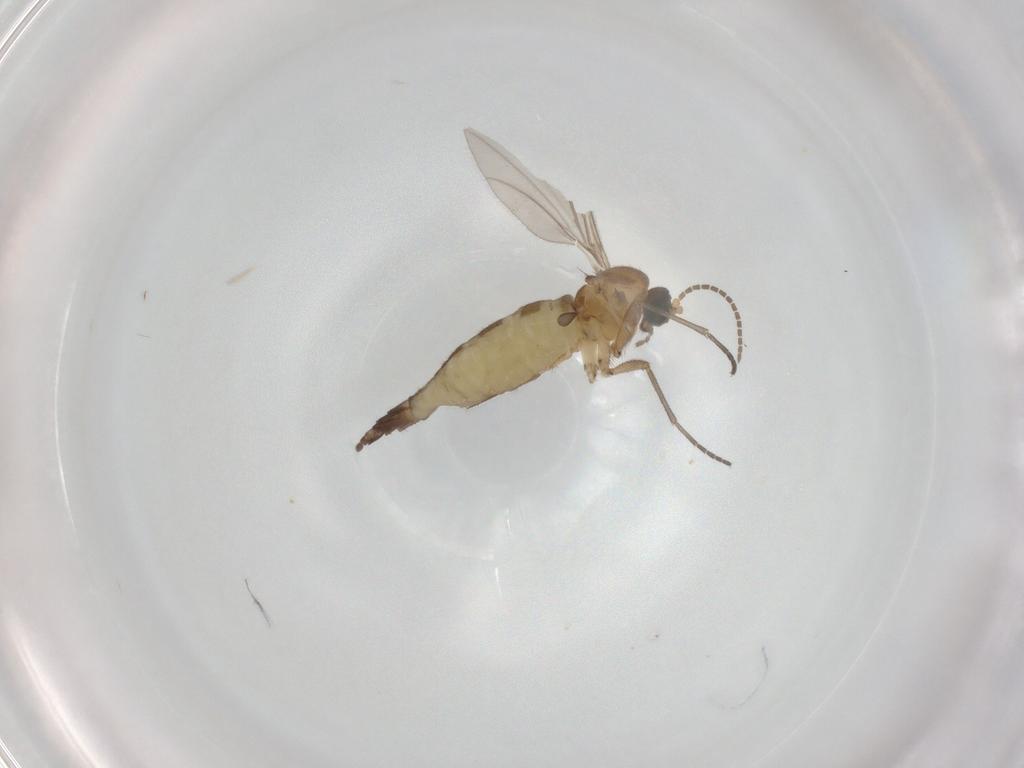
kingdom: Animalia
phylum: Arthropoda
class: Insecta
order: Diptera
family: Sciaridae
